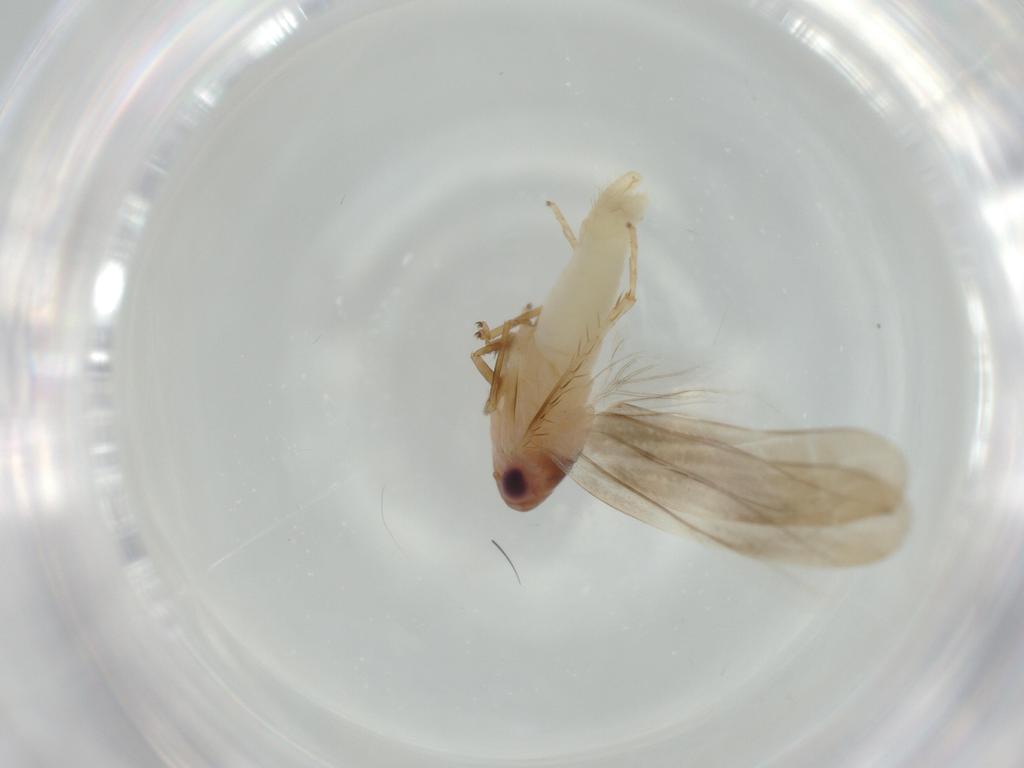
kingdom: Animalia
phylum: Arthropoda
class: Insecta
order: Hemiptera
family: Cicadellidae
